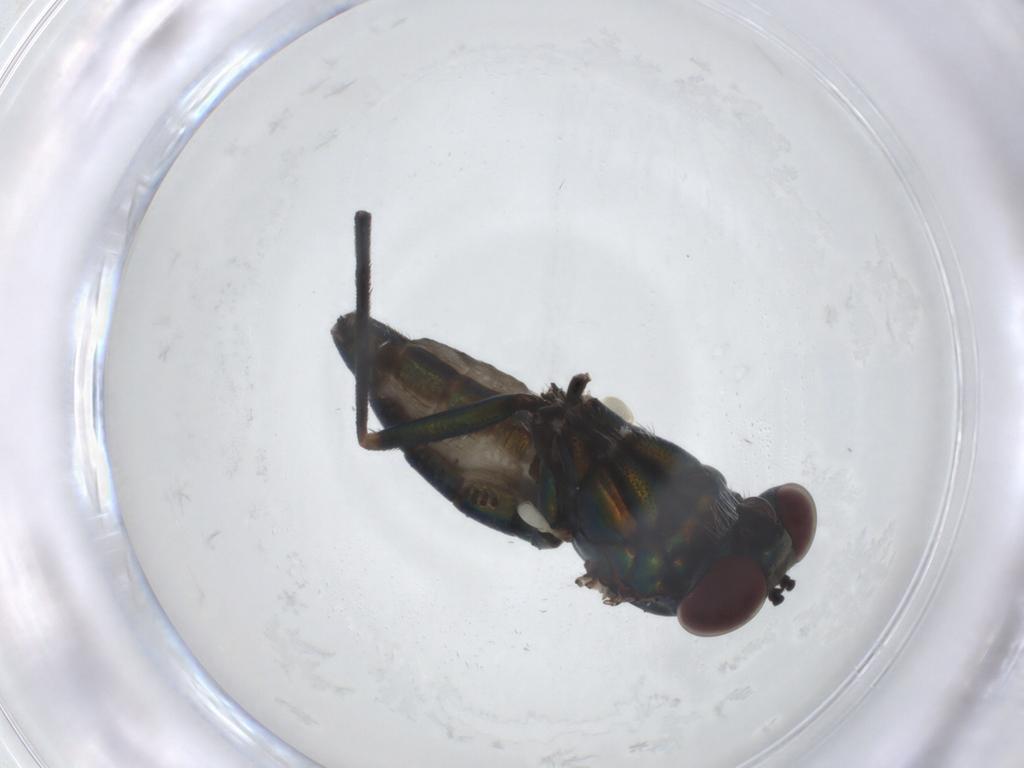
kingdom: Animalia
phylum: Arthropoda
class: Insecta
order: Diptera
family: Dolichopodidae
